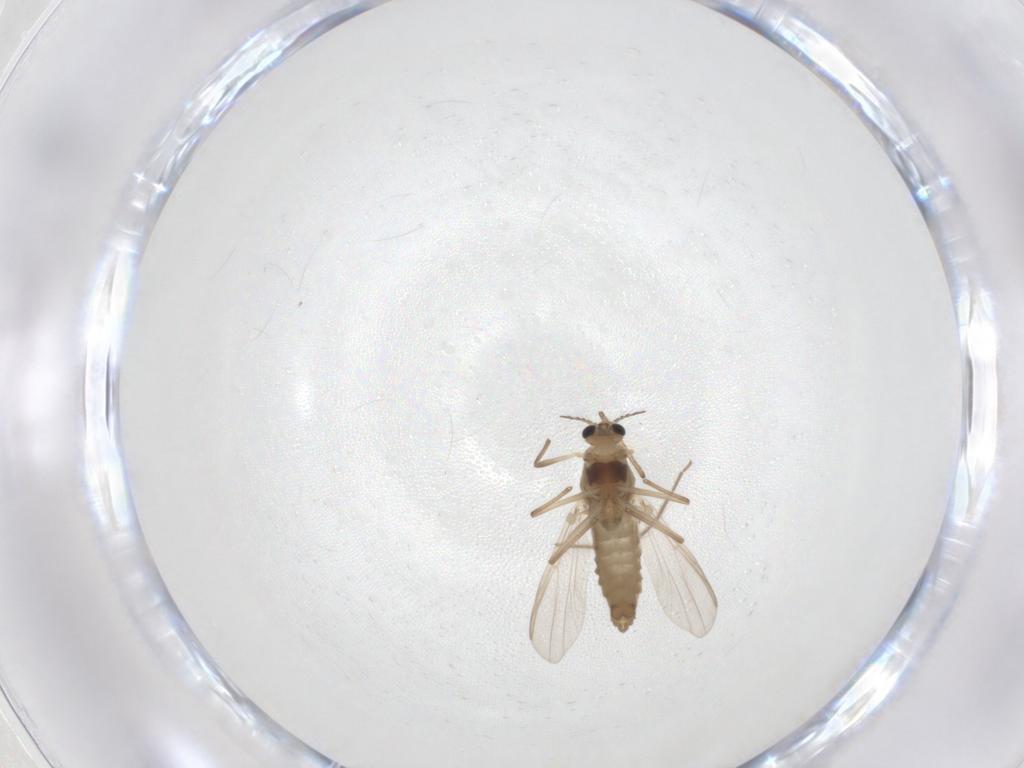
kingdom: Animalia
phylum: Arthropoda
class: Insecta
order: Diptera
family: Chironomidae
